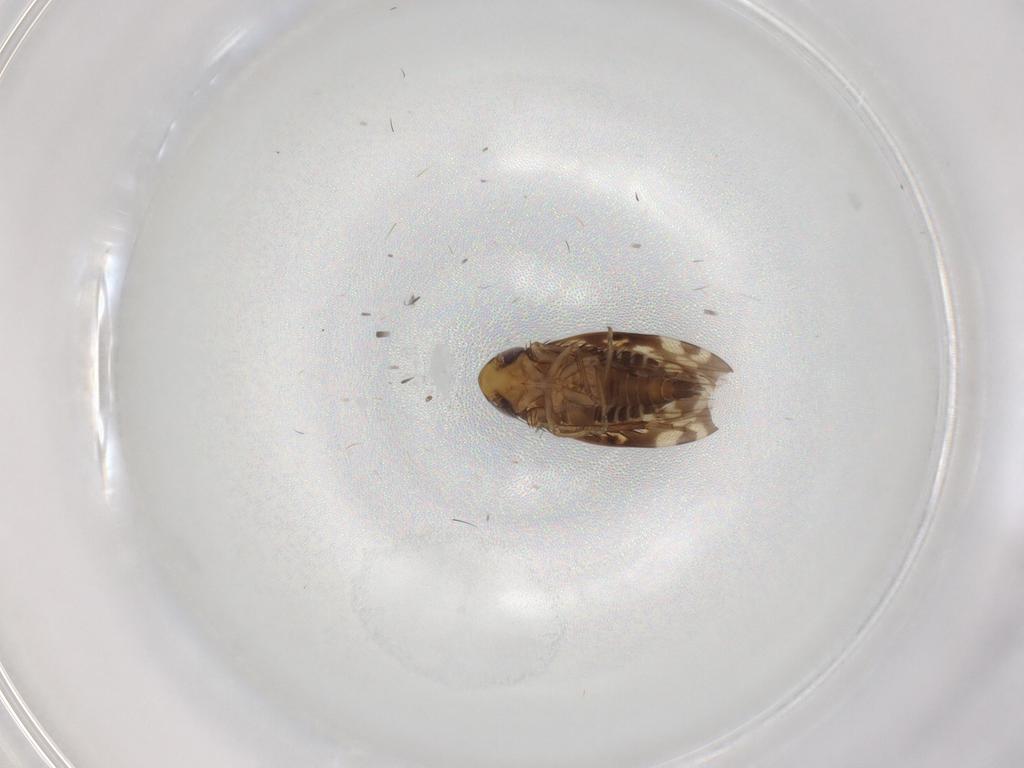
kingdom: Animalia
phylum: Arthropoda
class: Insecta
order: Hemiptera
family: Cicadellidae
